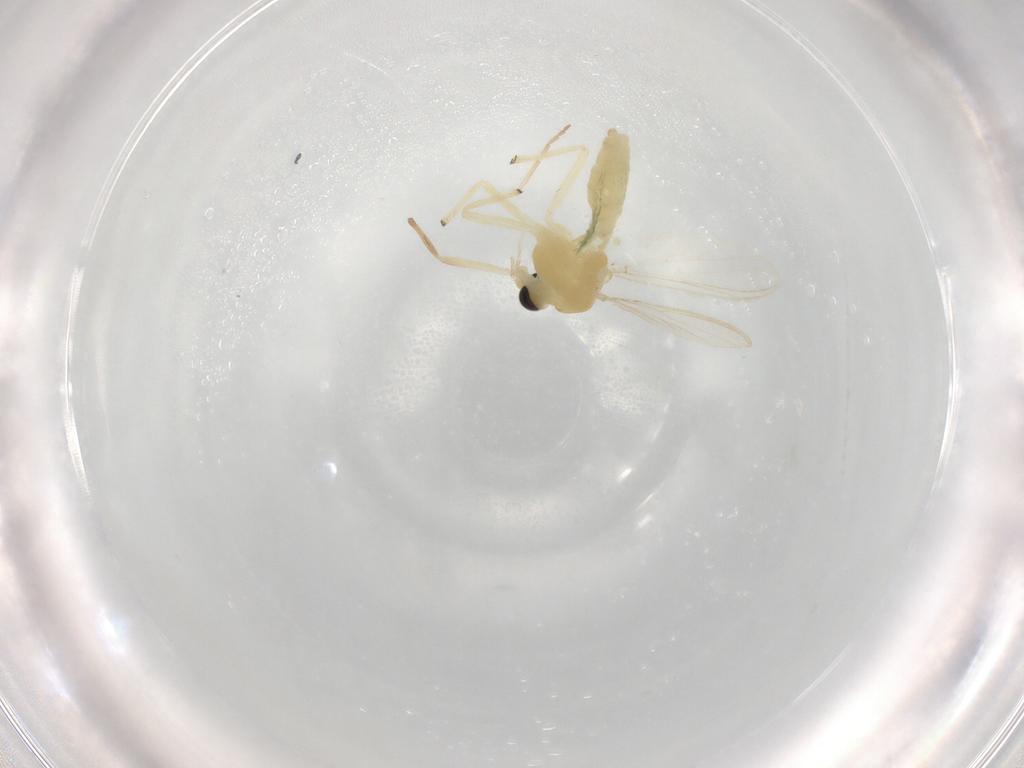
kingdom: Animalia
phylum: Arthropoda
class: Insecta
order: Diptera
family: Chironomidae
